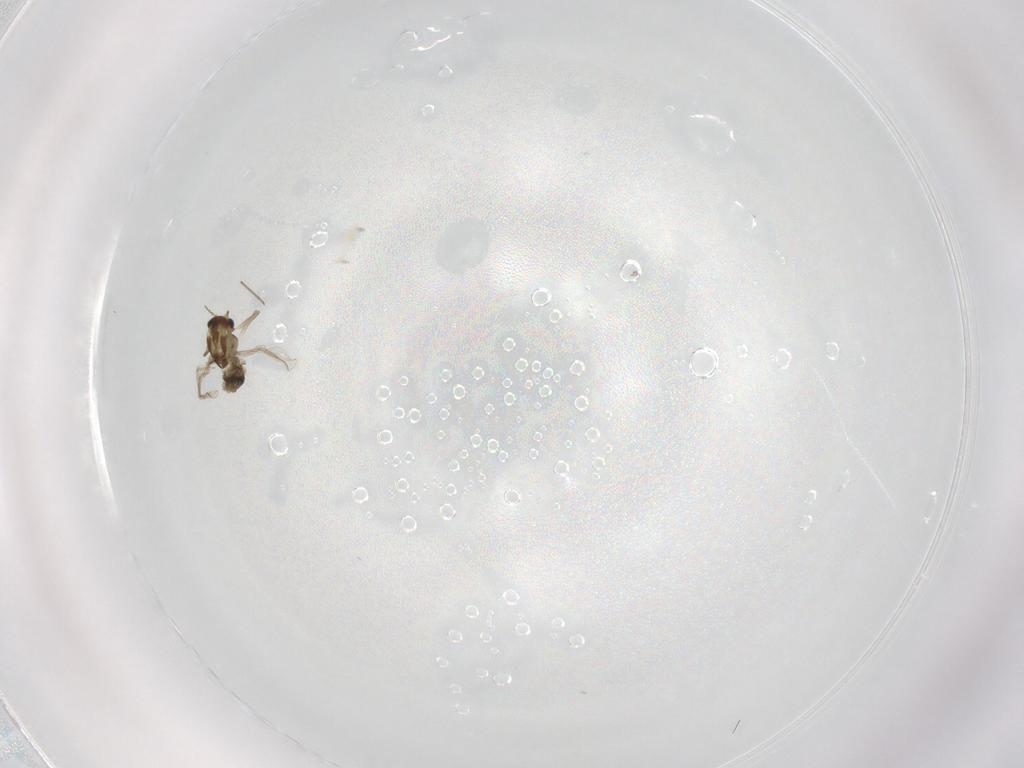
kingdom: Animalia
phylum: Arthropoda
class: Insecta
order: Diptera
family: Chironomidae
